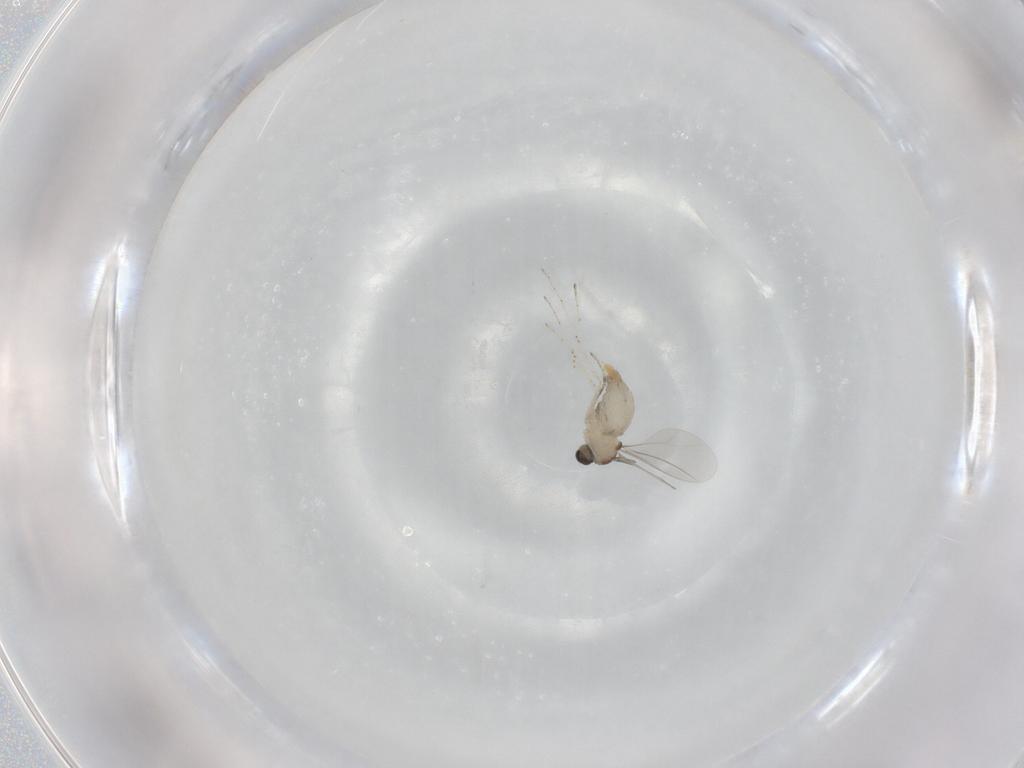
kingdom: Animalia
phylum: Arthropoda
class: Insecta
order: Diptera
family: Cecidomyiidae
